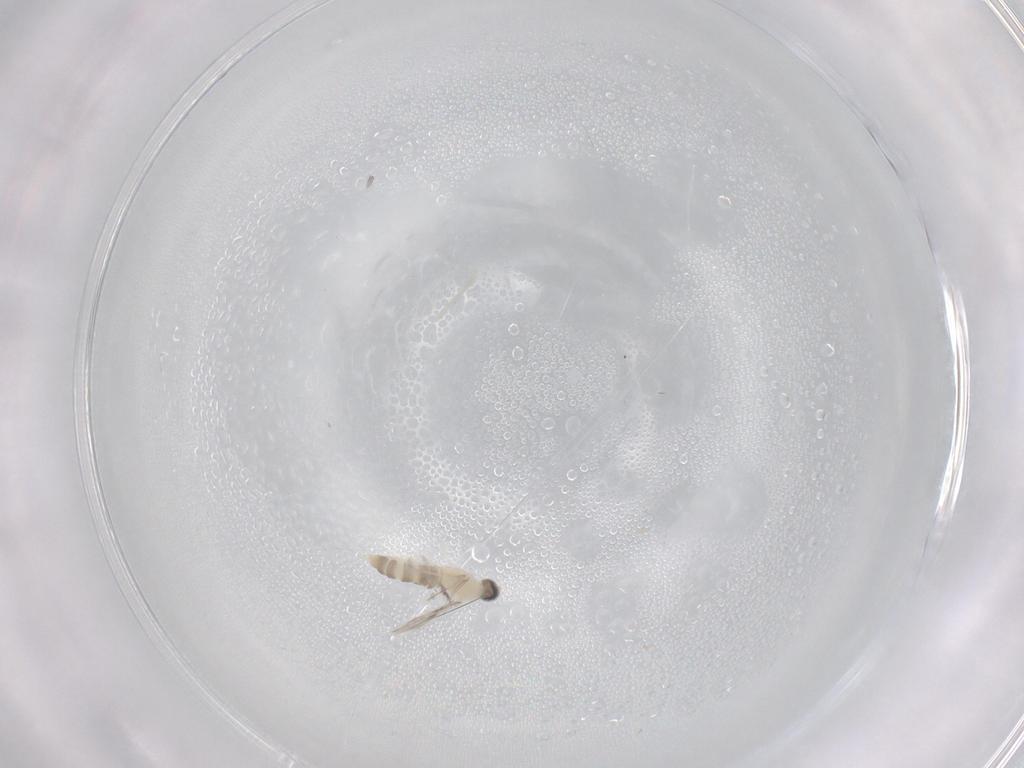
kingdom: Animalia
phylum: Arthropoda
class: Insecta
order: Diptera
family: Cecidomyiidae
